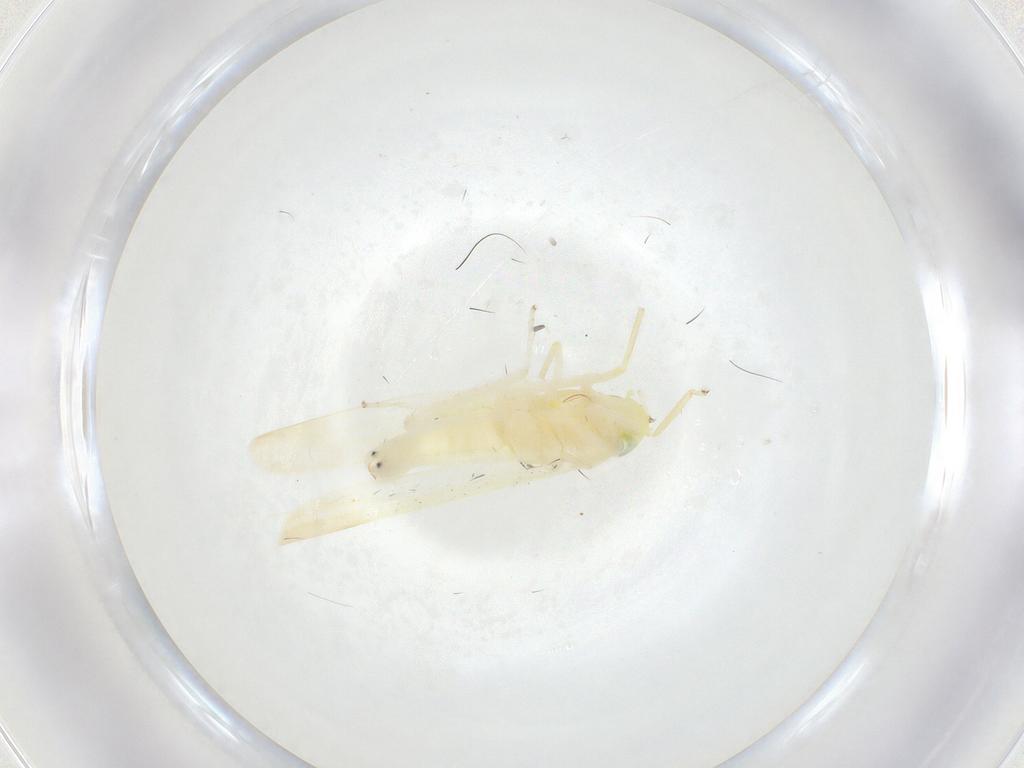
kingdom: Animalia
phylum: Arthropoda
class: Insecta
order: Hemiptera
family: Cicadellidae
